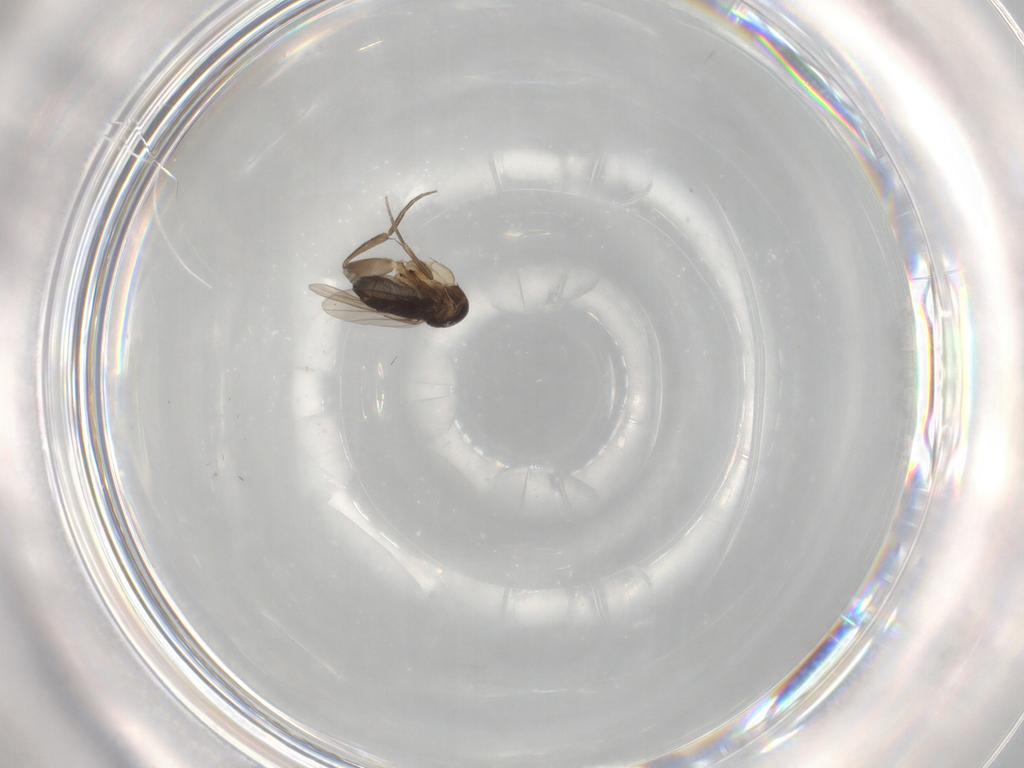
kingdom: Animalia
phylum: Arthropoda
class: Insecta
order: Diptera
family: Phoridae
